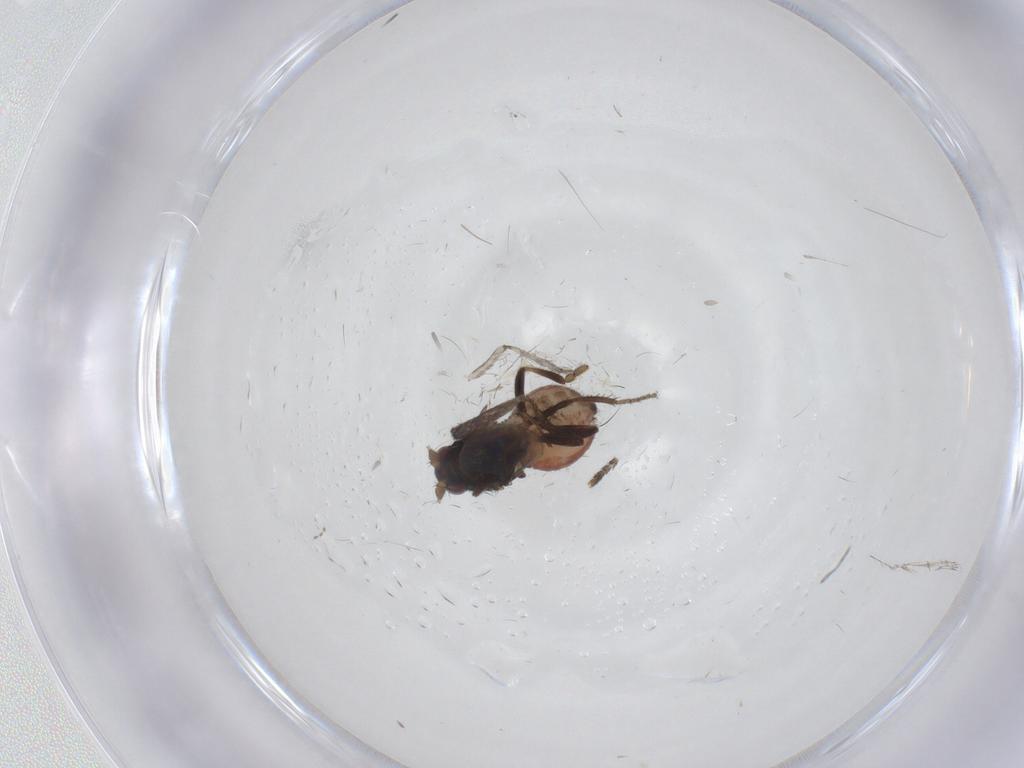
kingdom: Animalia
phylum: Arthropoda
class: Insecta
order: Diptera
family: Sphaeroceridae
